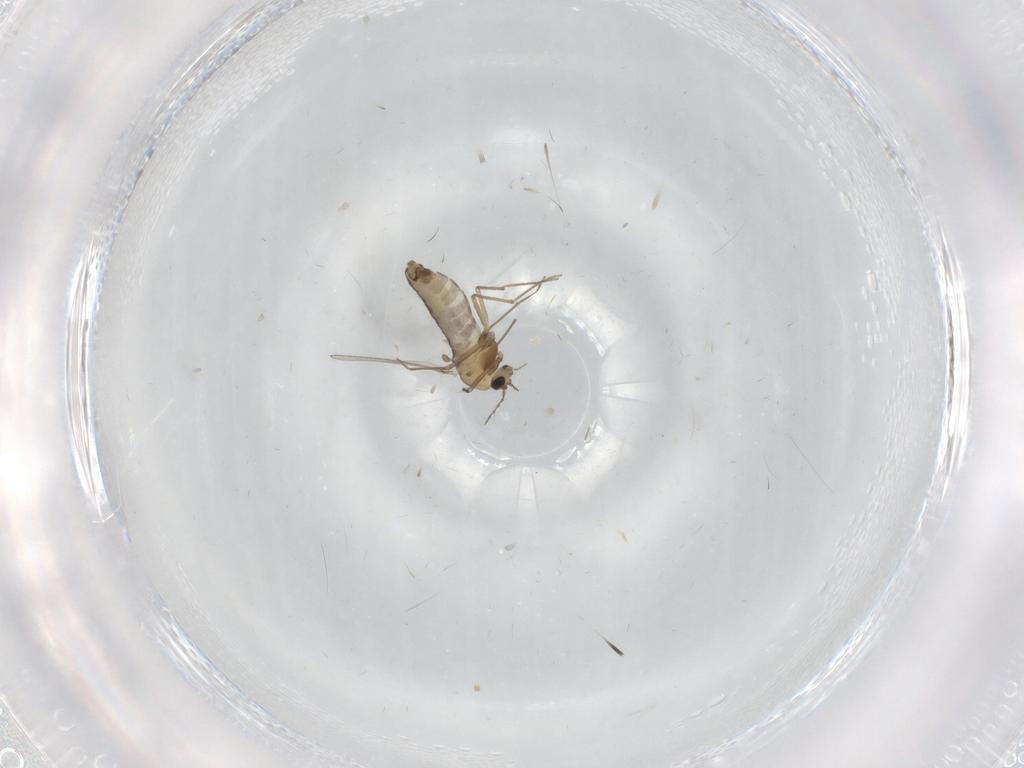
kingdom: Animalia
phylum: Arthropoda
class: Insecta
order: Diptera
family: Chironomidae
